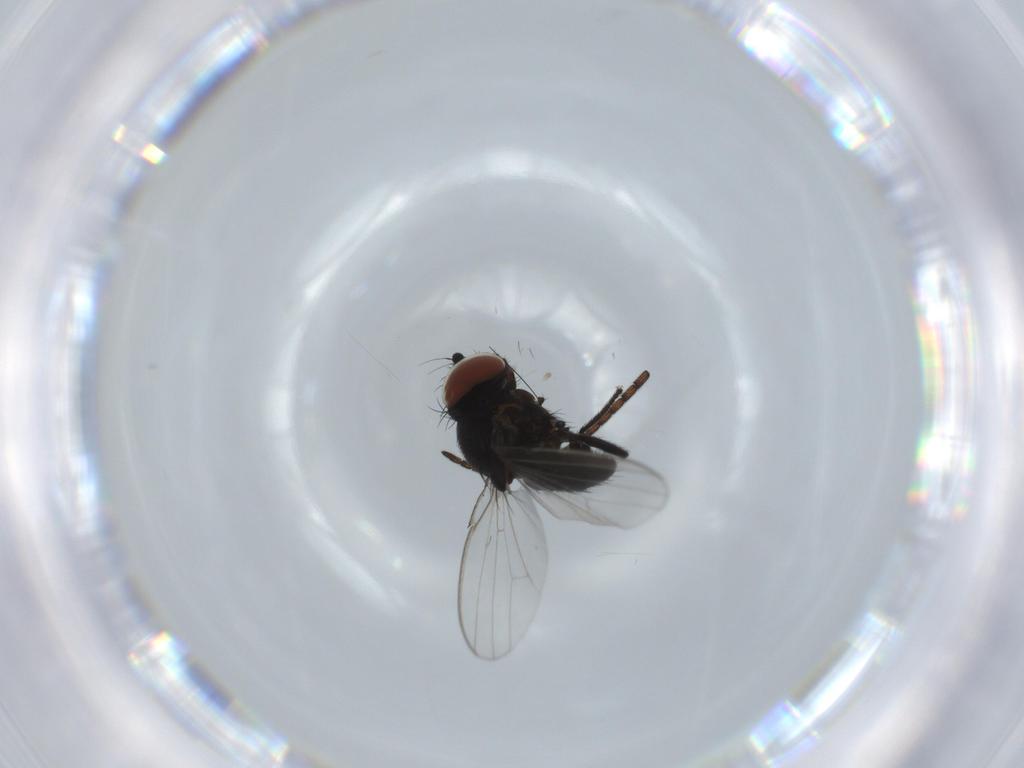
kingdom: Animalia
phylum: Arthropoda
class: Insecta
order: Diptera
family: Milichiidae
